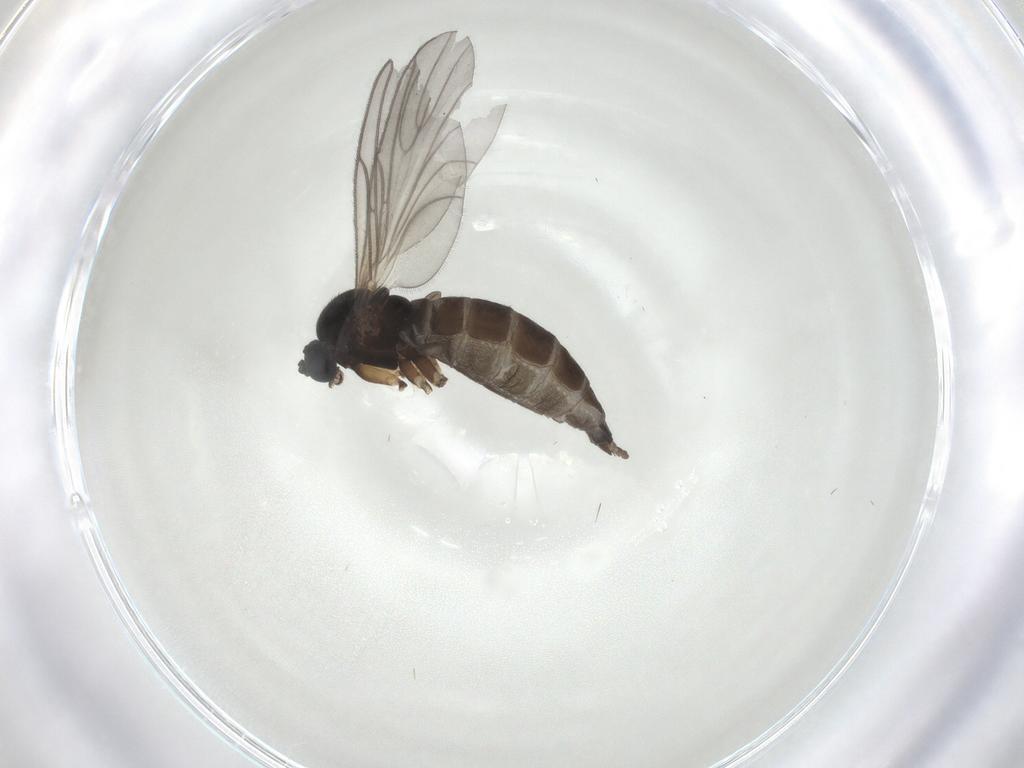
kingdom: Animalia
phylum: Arthropoda
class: Insecta
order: Diptera
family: Sciaridae
